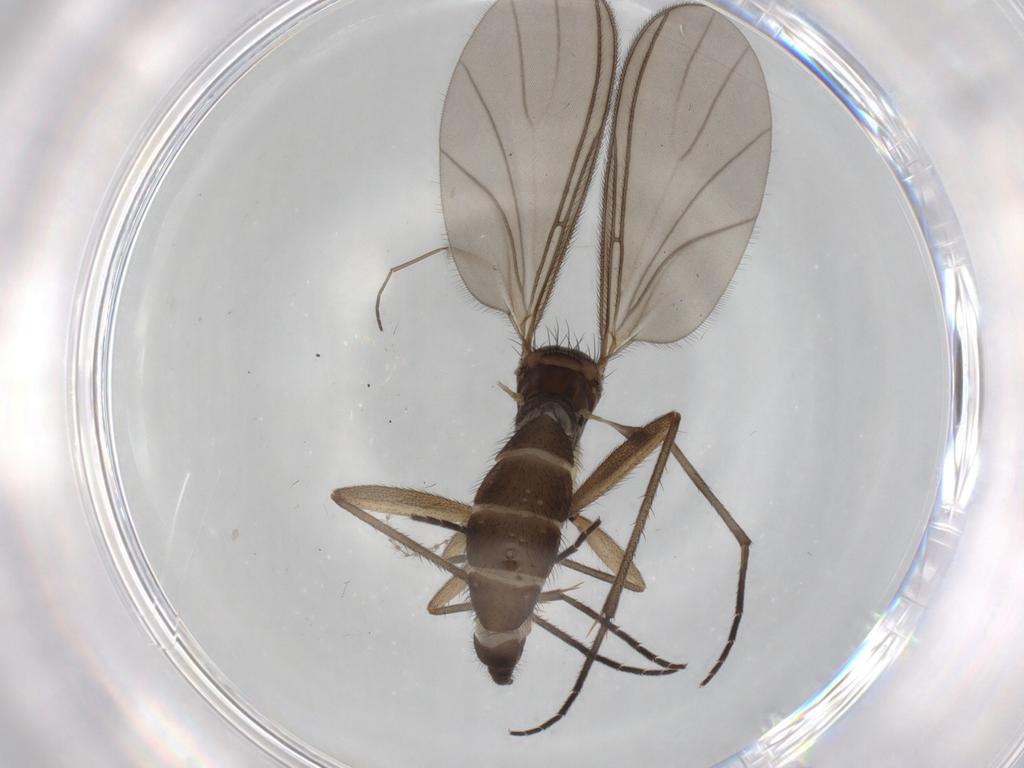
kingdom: Animalia
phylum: Arthropoda
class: Insecta
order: Diptera
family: Sciaridae
